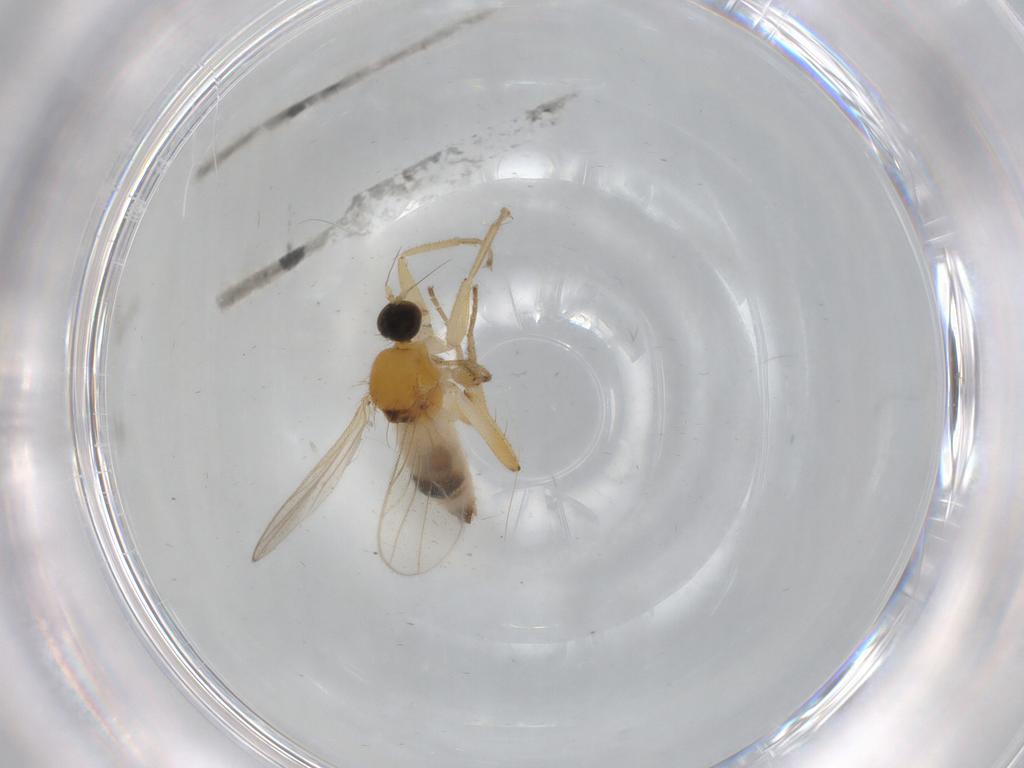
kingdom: Animalia
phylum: Arthropoda
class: Insecta
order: Diptera
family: Hybotidae
